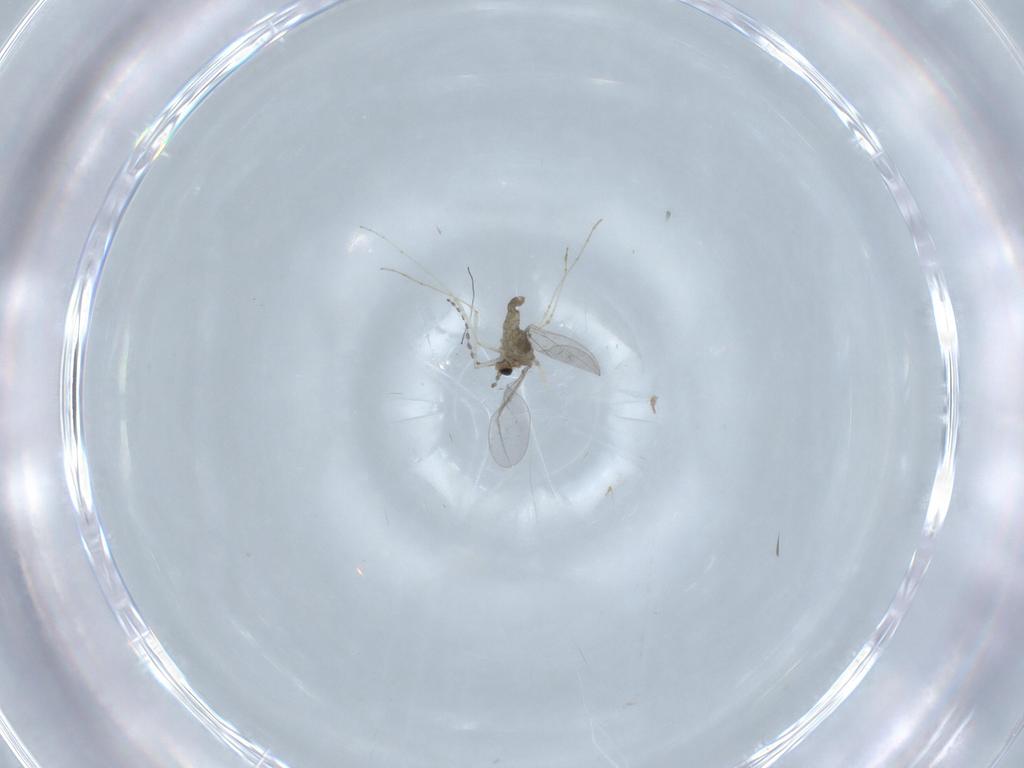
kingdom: Animalia
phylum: Arthropoda
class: Insecta
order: Diptera
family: Cecidomyiidae
